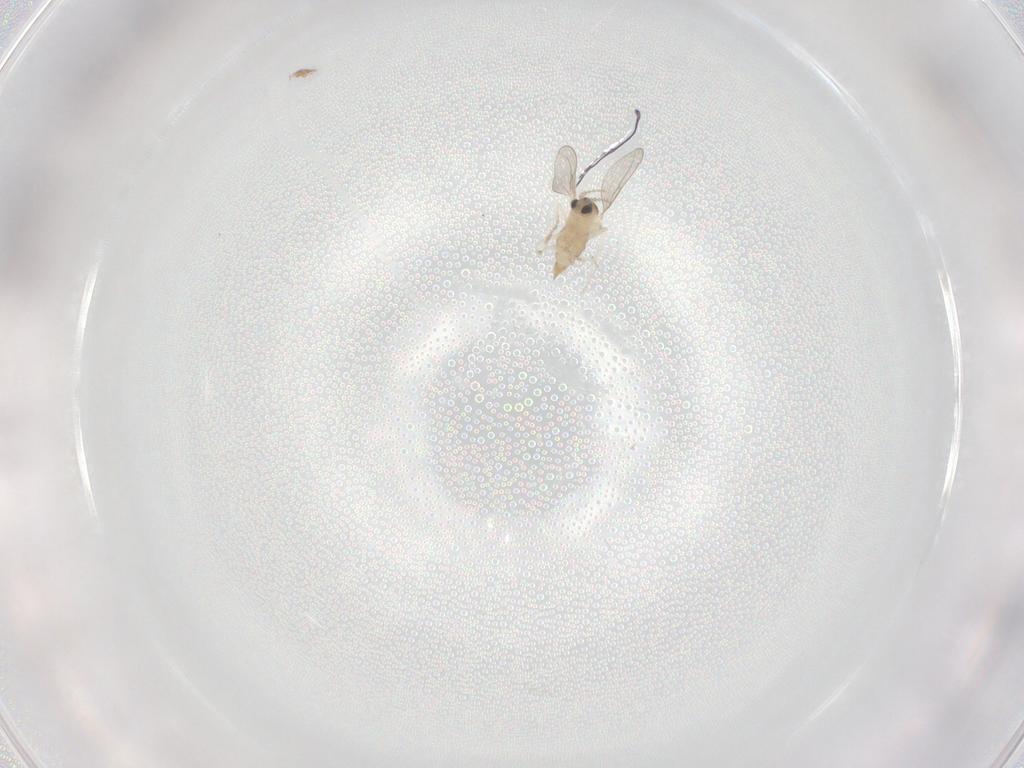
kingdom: Animalia
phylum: Arthropoda
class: Insecta
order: Diptera
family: Cecidomyiidae
